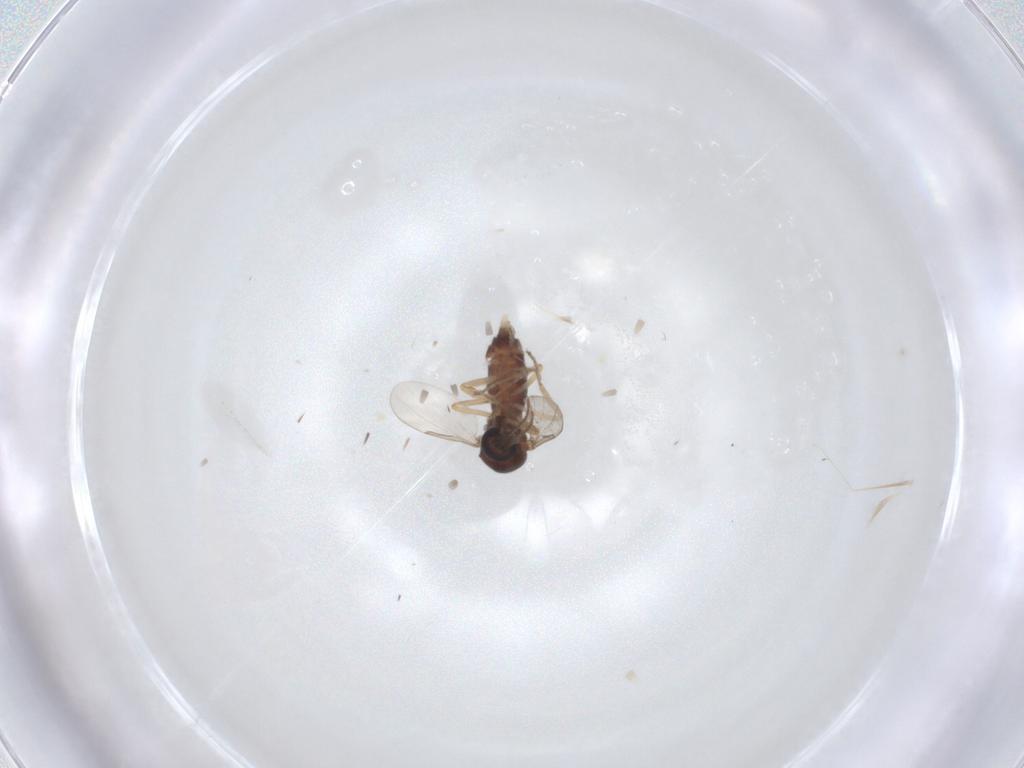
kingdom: Animalia
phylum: Arthropoda
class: Insecta
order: Diptera
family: Ceratopogonidae
